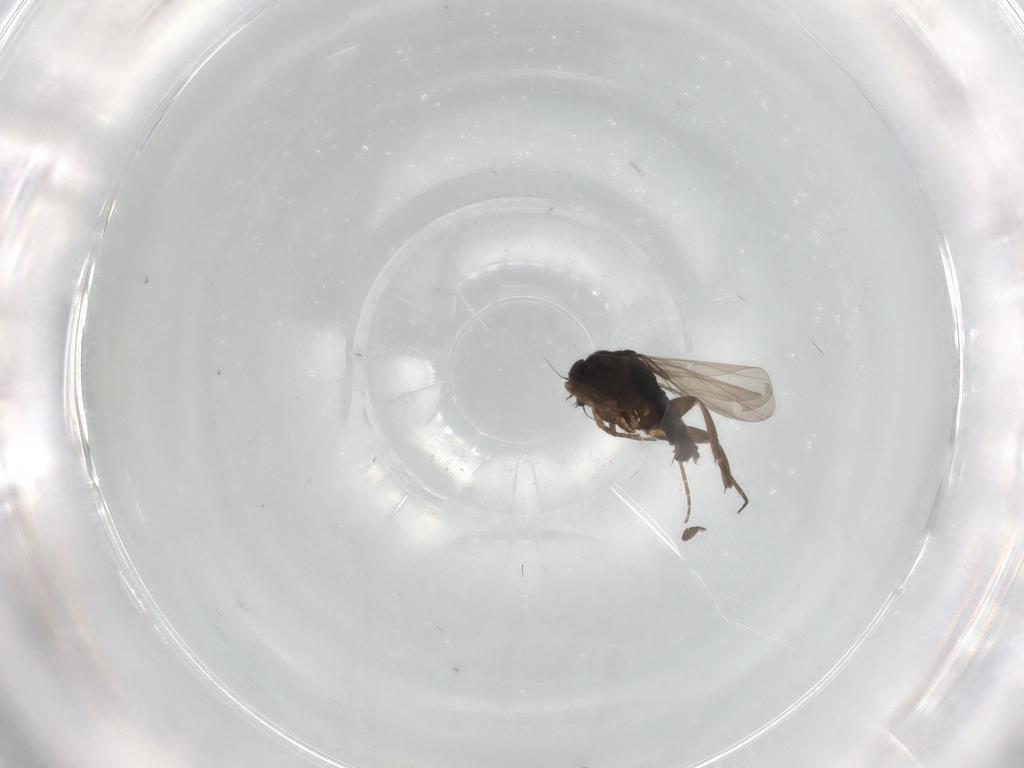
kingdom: Animalia
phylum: Arthropoda
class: Insecta
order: Diptera
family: Phoridae
